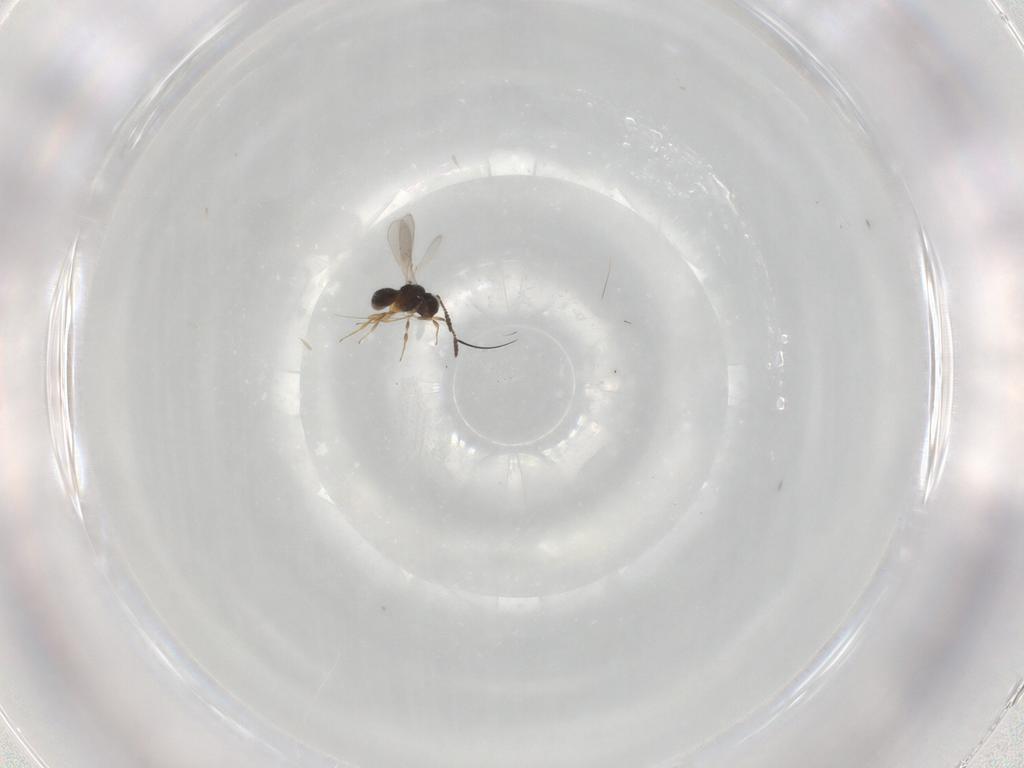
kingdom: Animalia
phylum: Arthropoda
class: Insecta
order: Hymenoptera
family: Scelionidae
